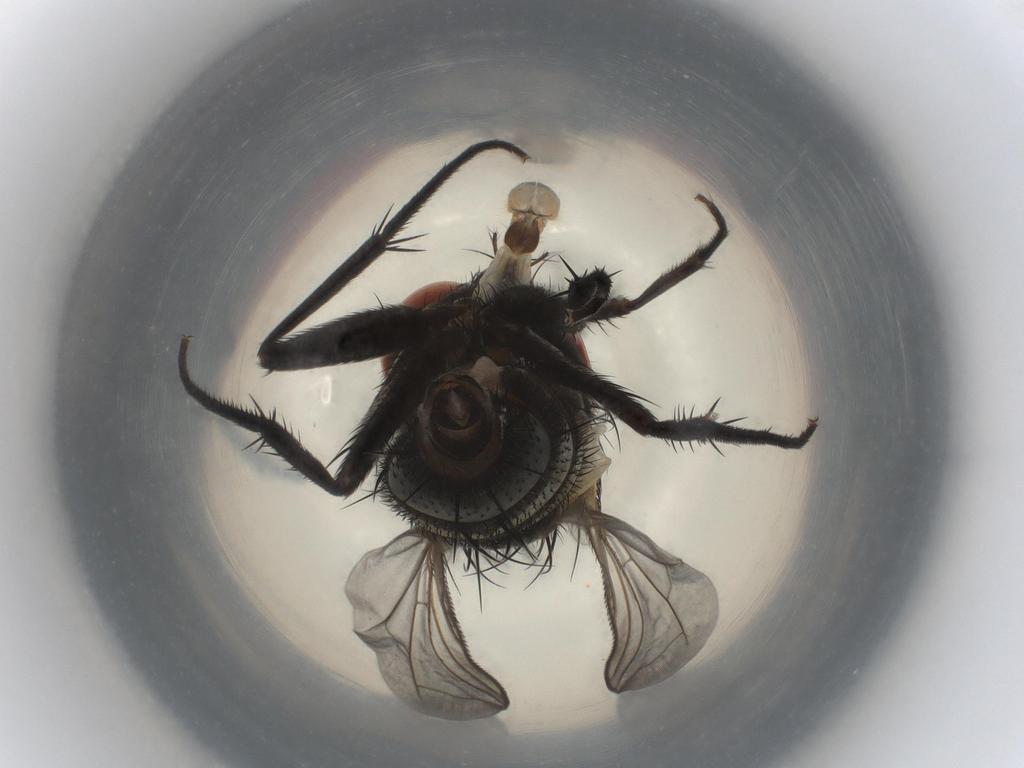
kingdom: Animalia
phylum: Arthropoda
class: Insecta
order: Diptera
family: Sarcophagidae
